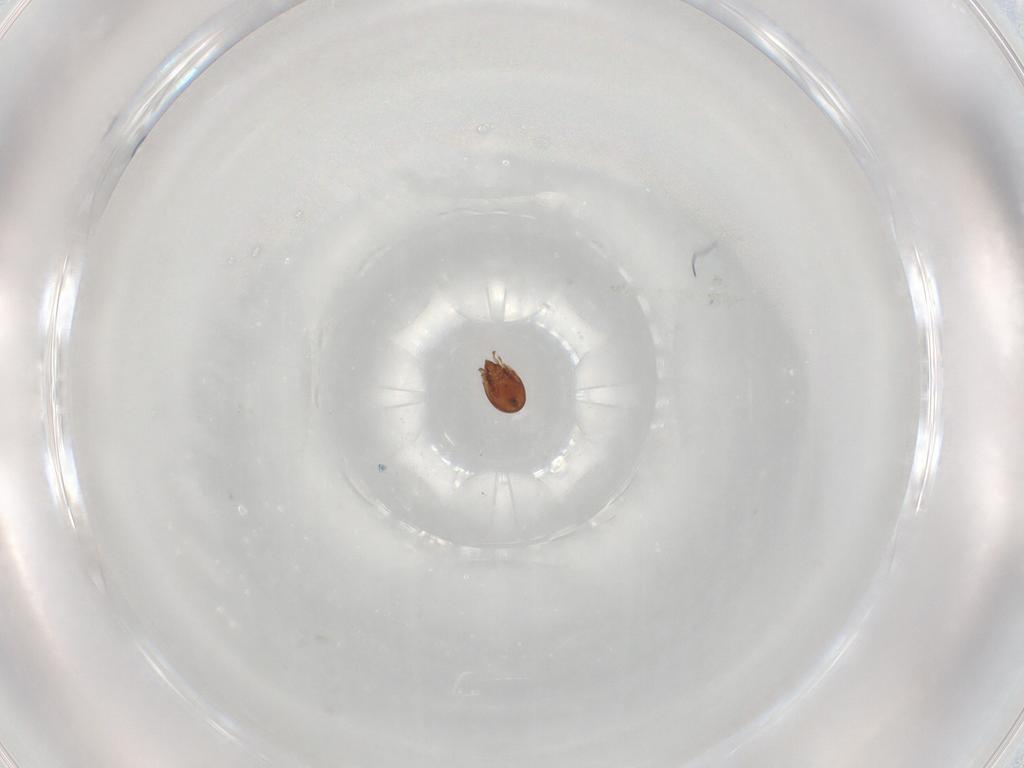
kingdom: Animalia
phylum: Arthropoda
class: Arachnida
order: Sarcoptiformes
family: Scheloribatidae
